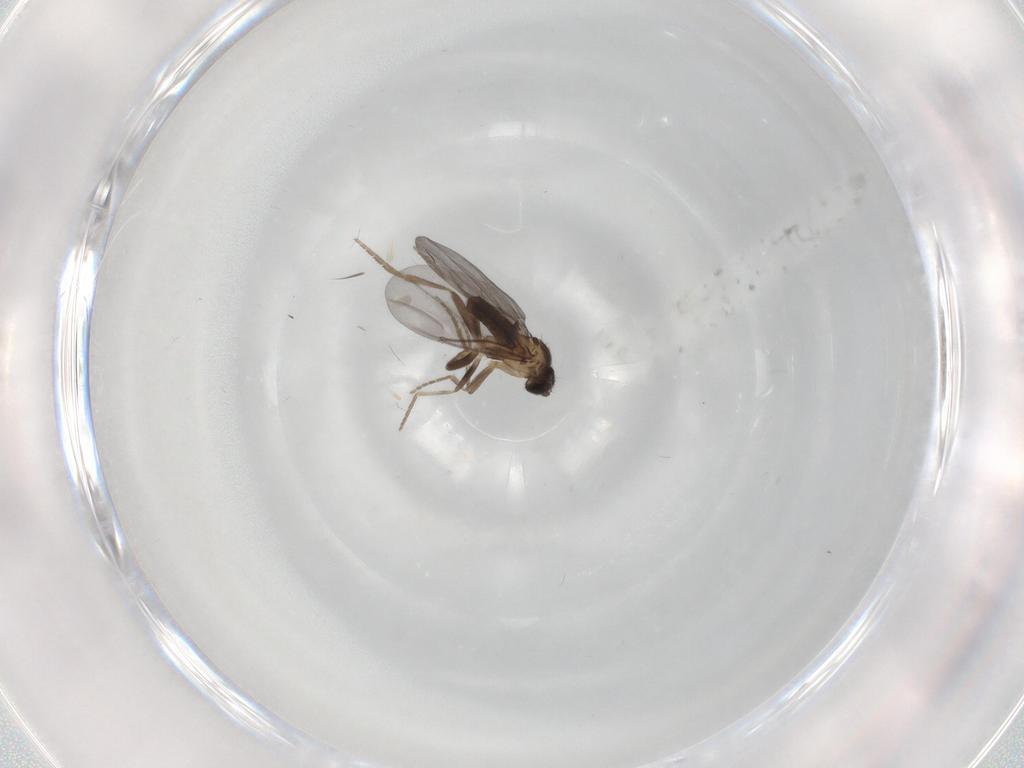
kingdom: Animalia
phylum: Arthropoda
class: Insecta
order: Diptera
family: Phoridae
